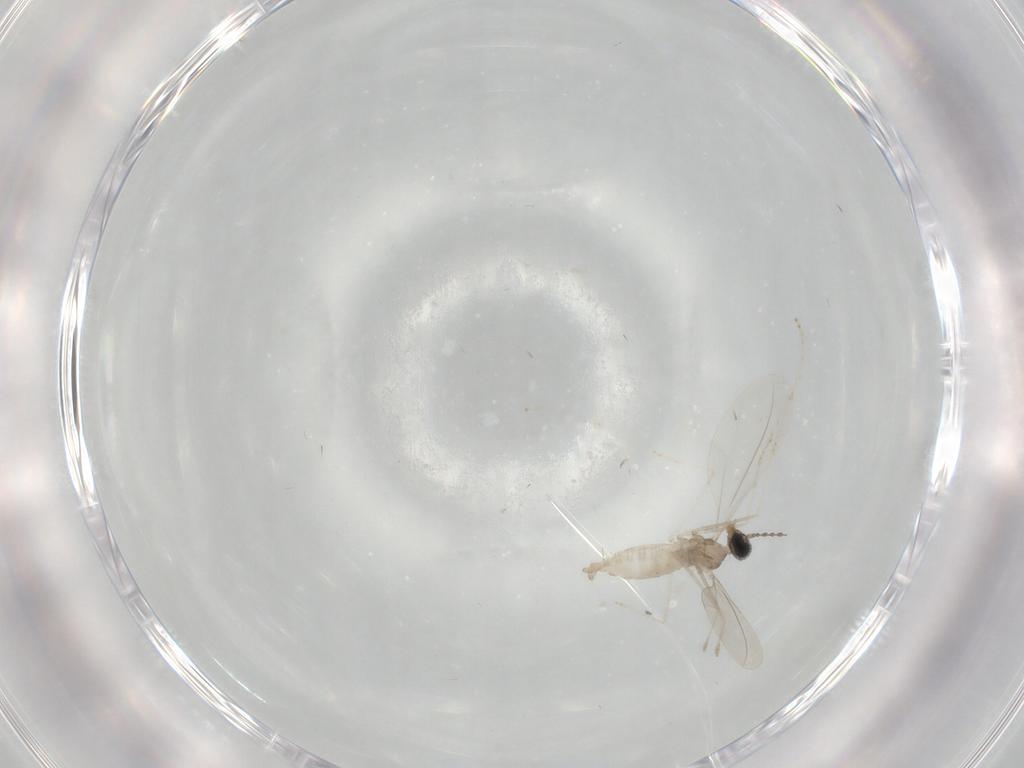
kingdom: Animalia
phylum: Arthropoda
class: Insecta
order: Diptera
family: Cecidomyiidae
